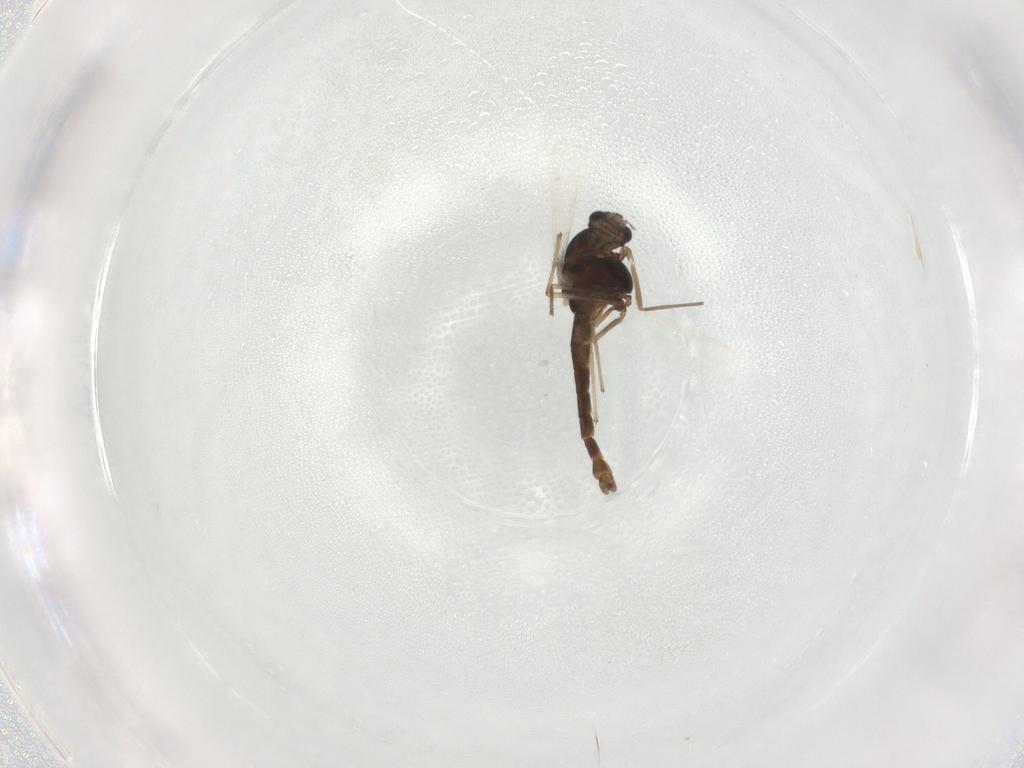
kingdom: Animalia
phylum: Arthropoda
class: Insecta
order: Diptera
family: Chironomidae
